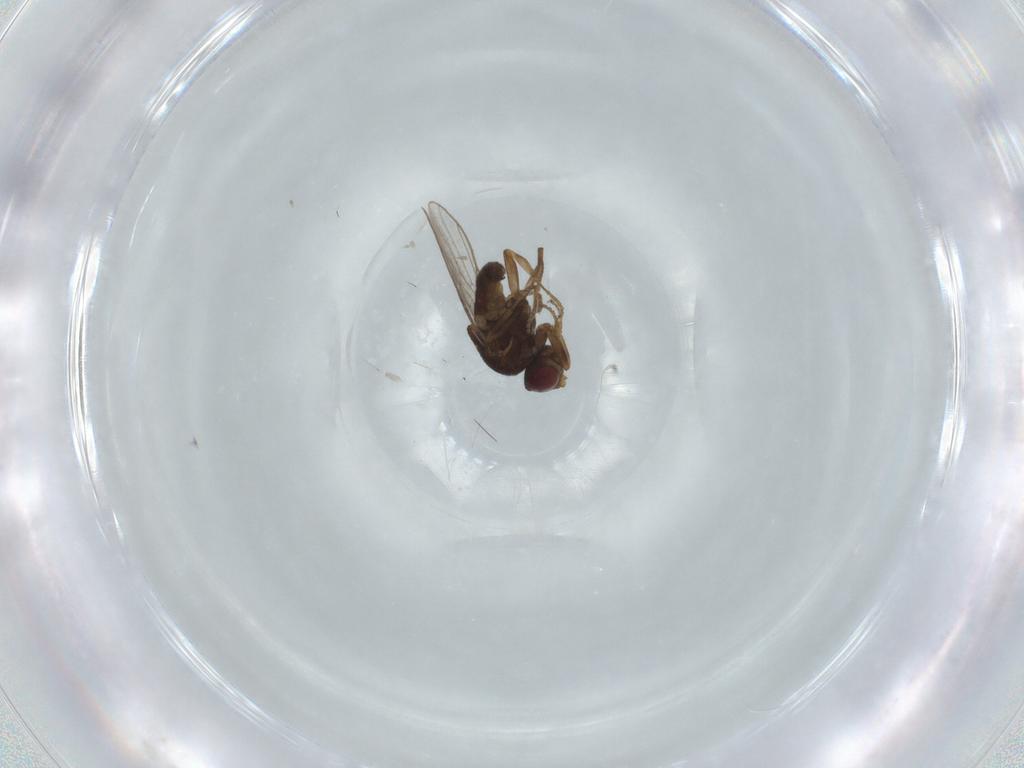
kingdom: Animalia
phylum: Arthropoda
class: Insecta
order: Diptera
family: Chloropidae
